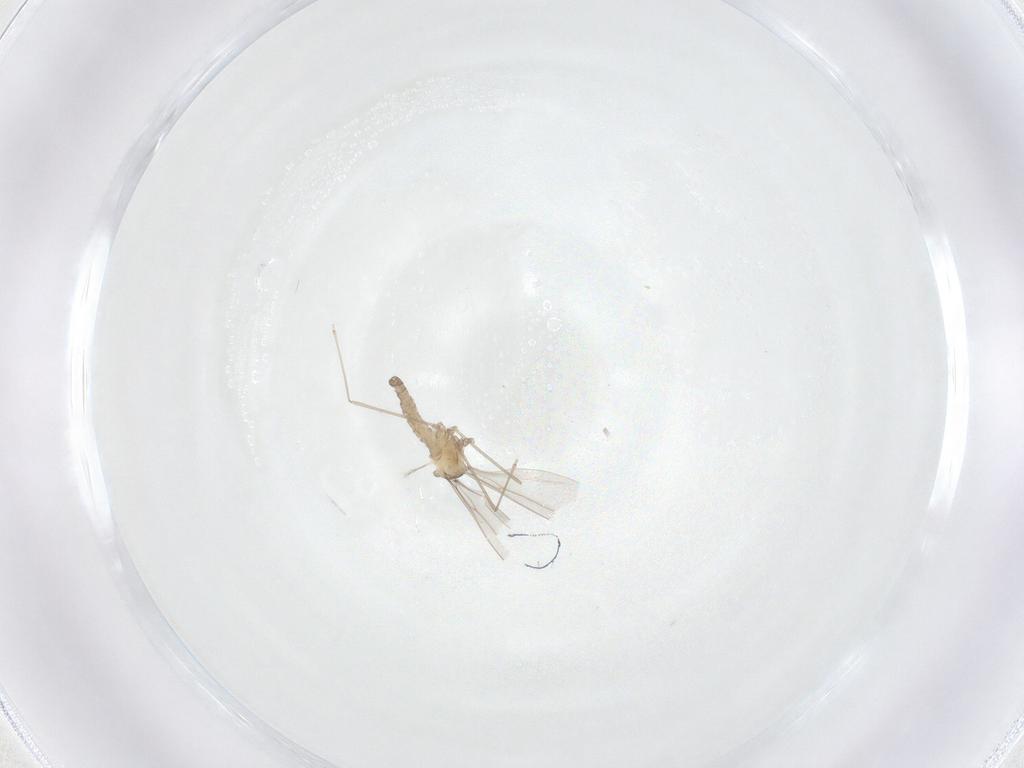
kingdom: Animalia
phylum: Arthropoda
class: Insecta
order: Diptera
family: Cecidomyiidae
